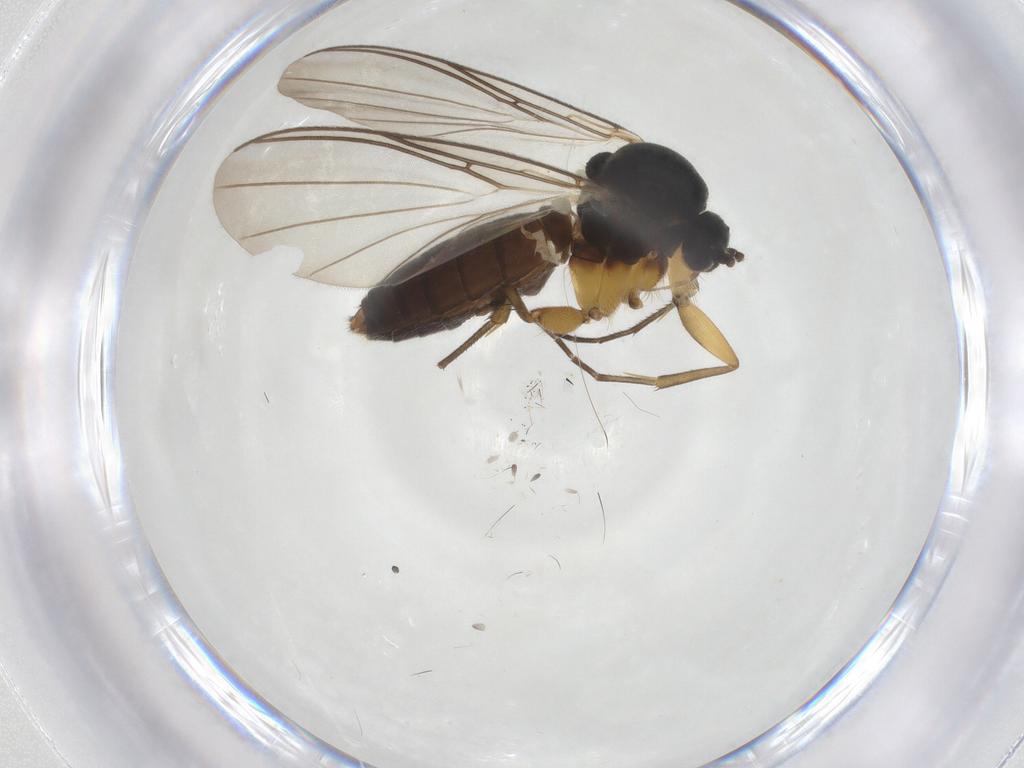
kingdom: Animalia
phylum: Arthropoda
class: Insecta
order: Diptera
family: Mycetophilidae
